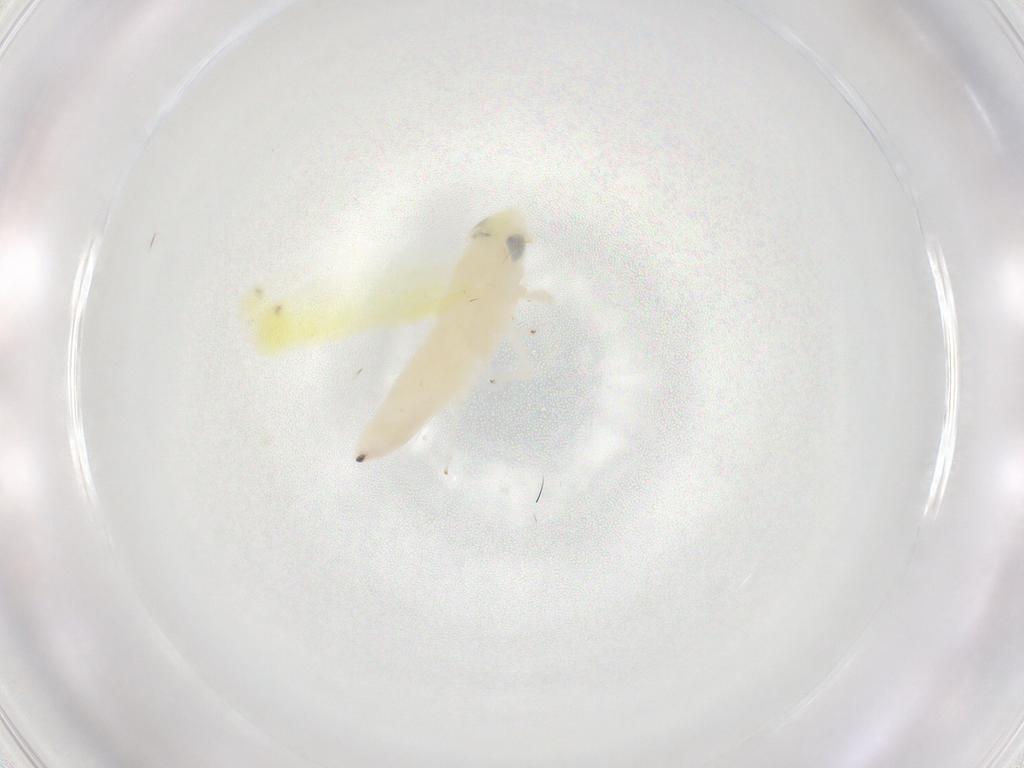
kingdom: Animalia
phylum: Arthropoda
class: Insecta
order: Hemiptera
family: Cicadellidae
